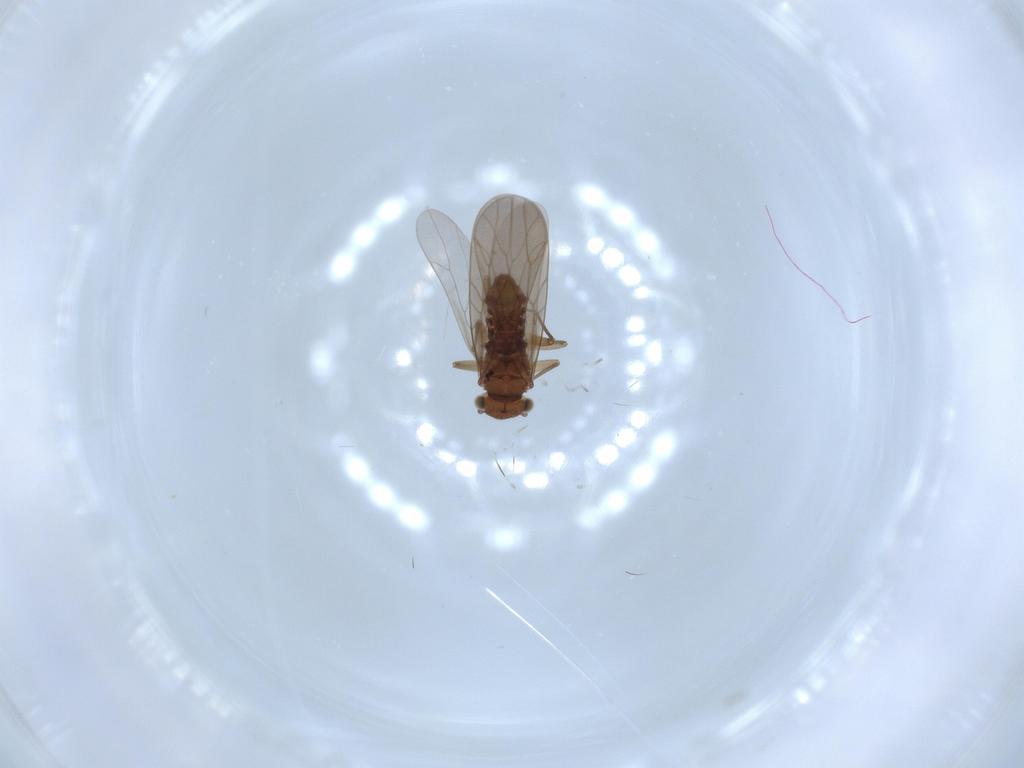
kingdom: Animalia
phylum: Arthropoda
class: Insecta
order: Psocodea
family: Lepidopsocidae
